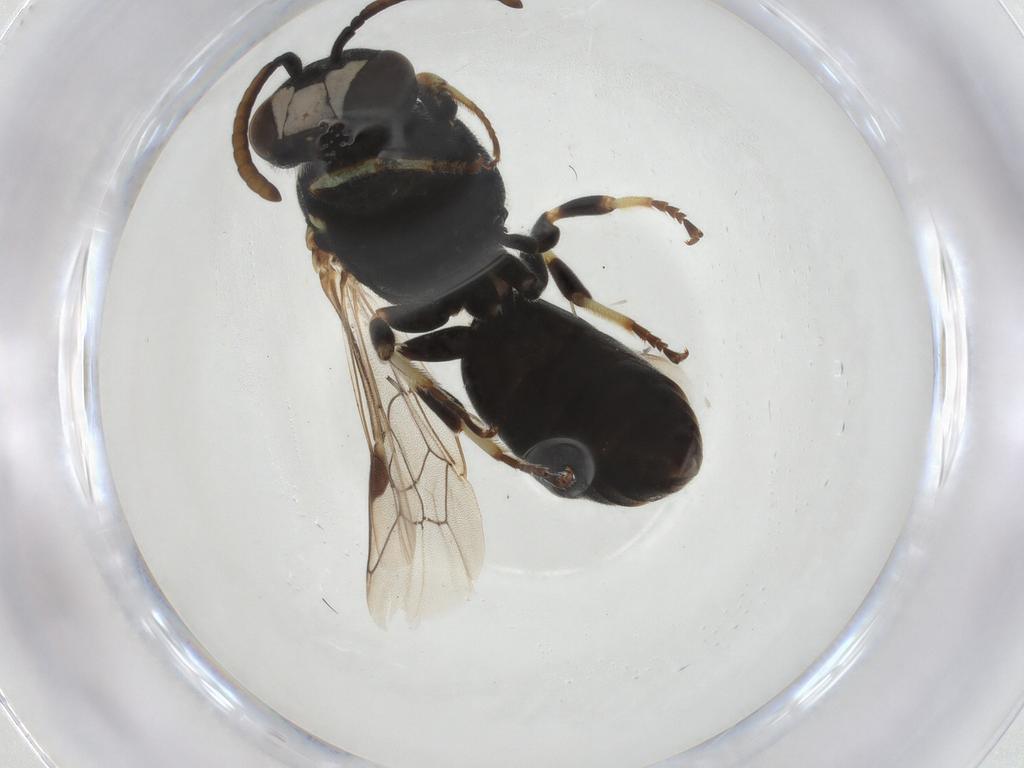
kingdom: Animalia
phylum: Arthropoda
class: Insecta
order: Hymenoptera
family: Colletidae
